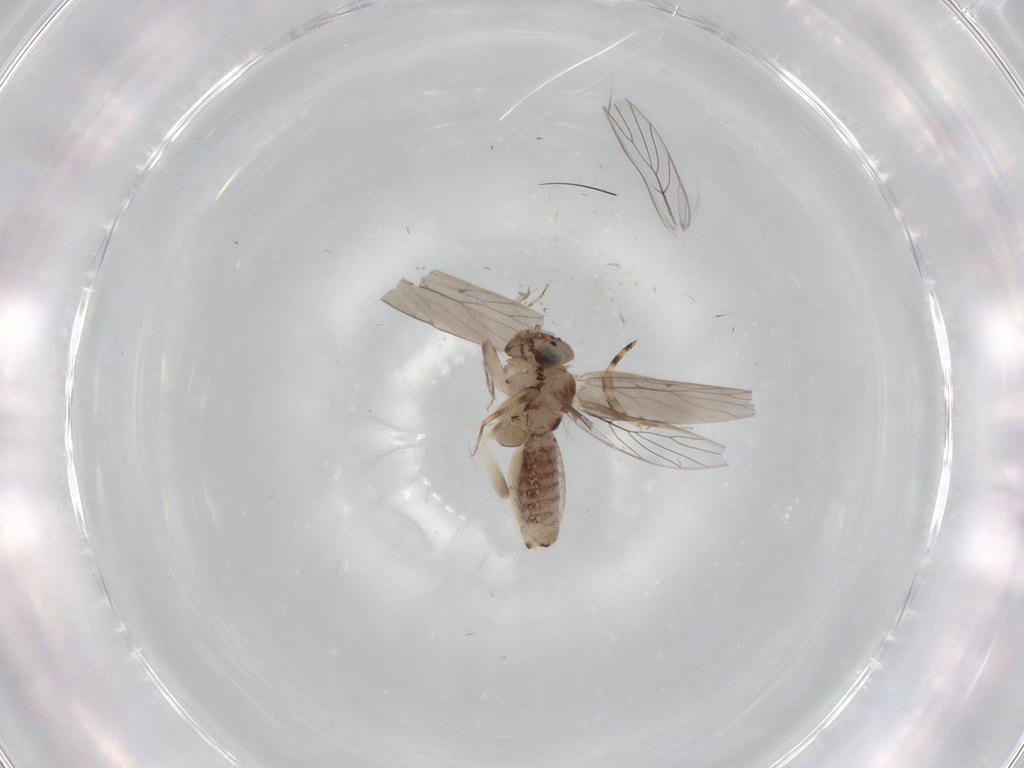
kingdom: Animalia
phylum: Arthropoda
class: Insecta
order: Psocodea
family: Lepidopsocidae
